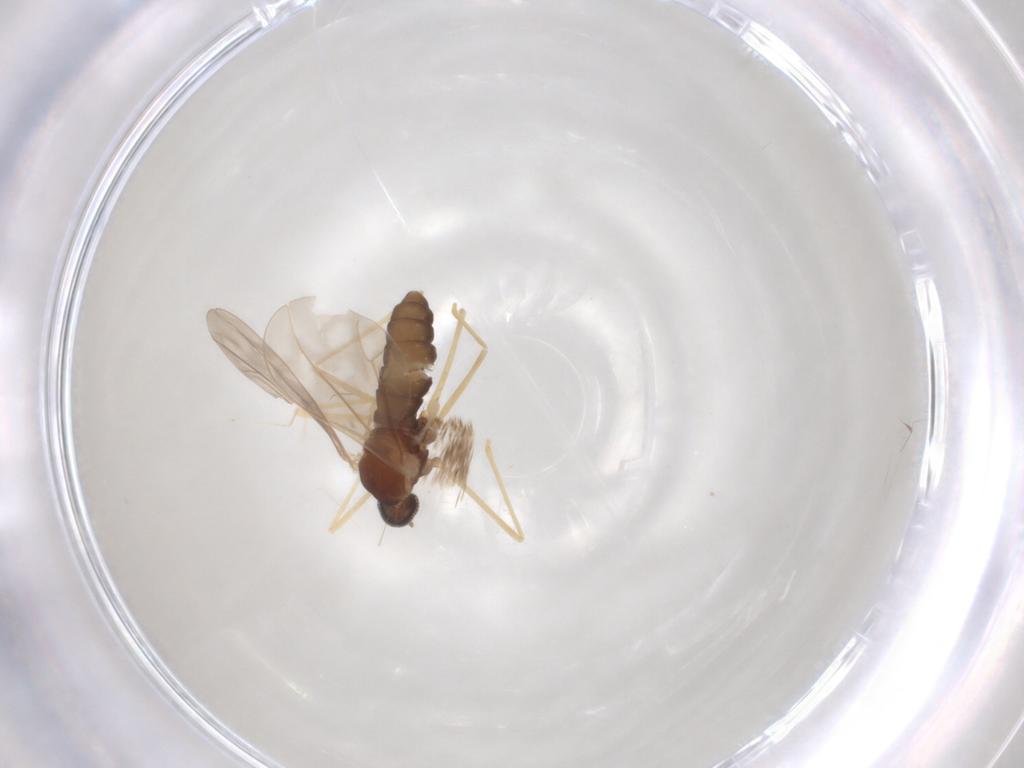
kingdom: Animalia
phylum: Arthropoda
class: Insecta
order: Diptera
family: Cecidomyiidae
